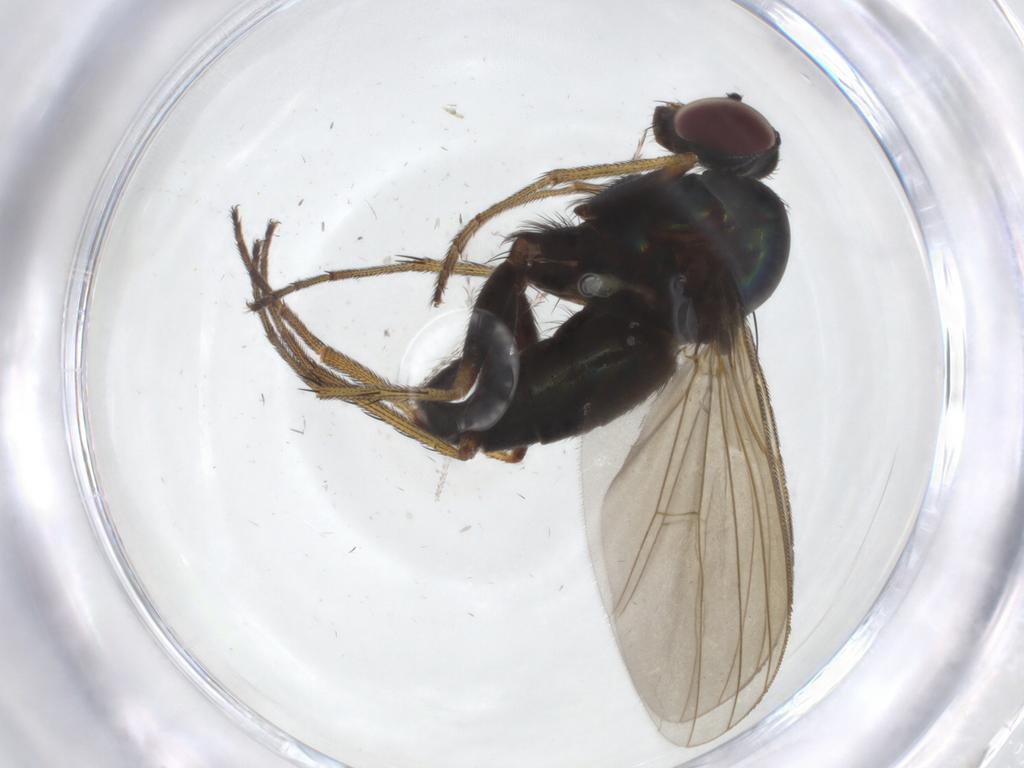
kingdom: Animalia
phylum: Arthropoda
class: Insecta
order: Diptera
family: Dolichopodidae
